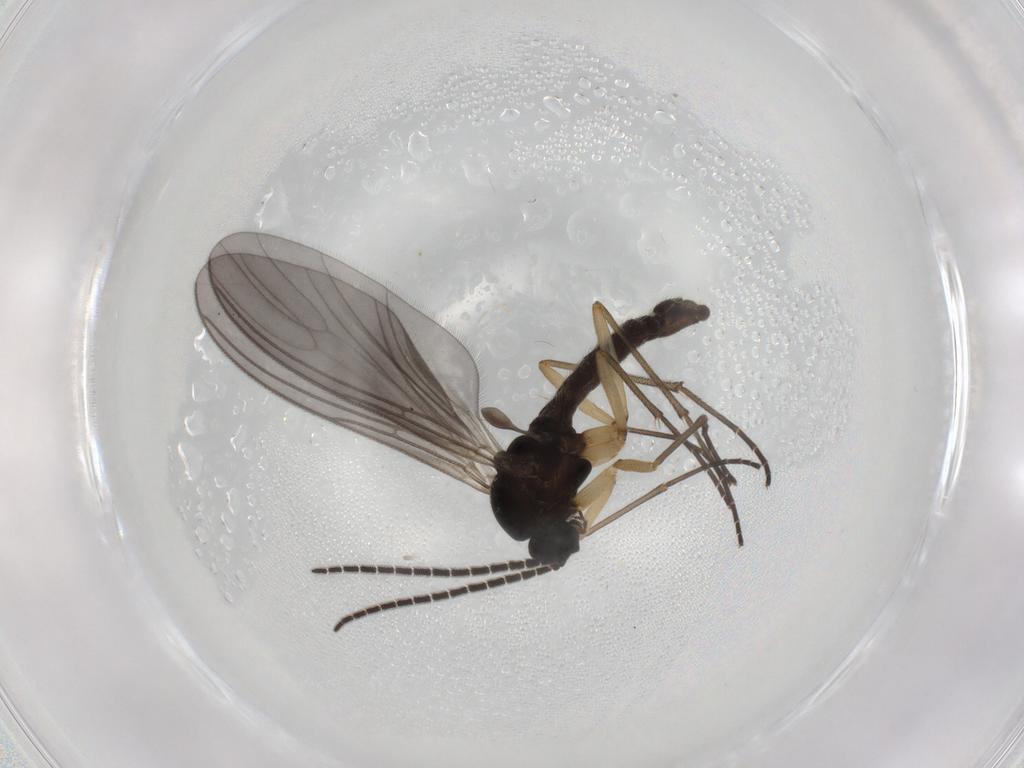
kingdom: Animalia
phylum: Arthropoda
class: Insecta
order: Diptera
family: Sciaridae
